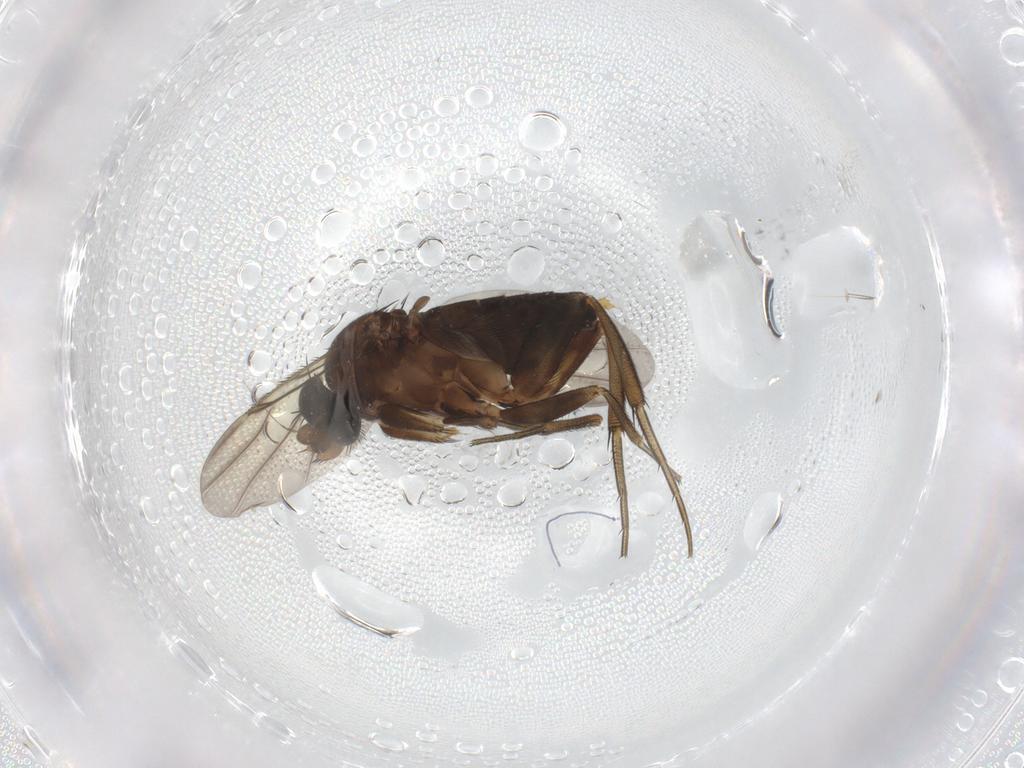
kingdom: Animalia
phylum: Arthropoda
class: Insecta
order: Diptera
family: Phoridae
